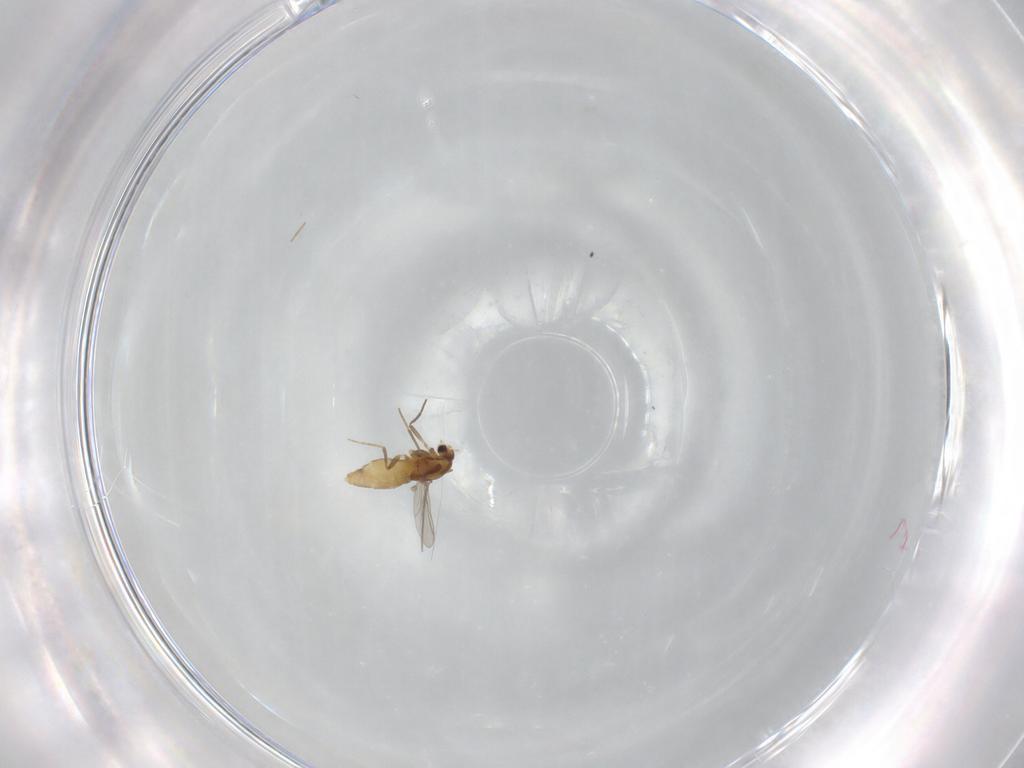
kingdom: Animalia
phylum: Arthropoda
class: Insecta
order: Diptera
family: Chironomidae
